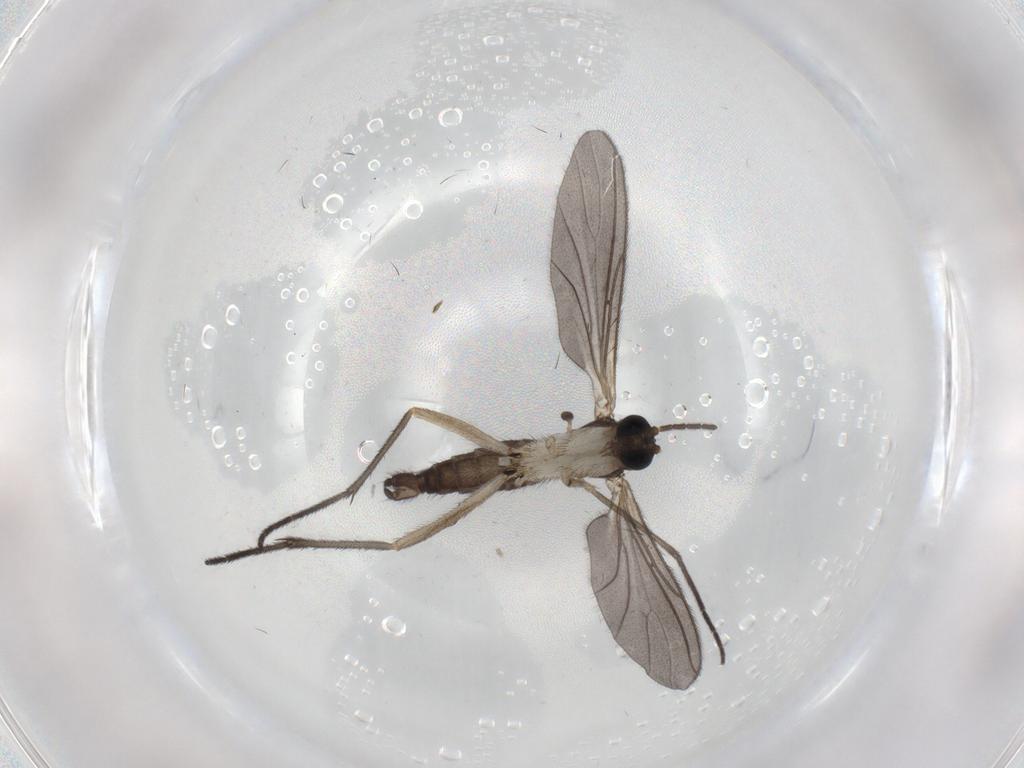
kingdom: Animalia
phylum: Arthropoda
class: Insecta
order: Diptera
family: Sciaridae
